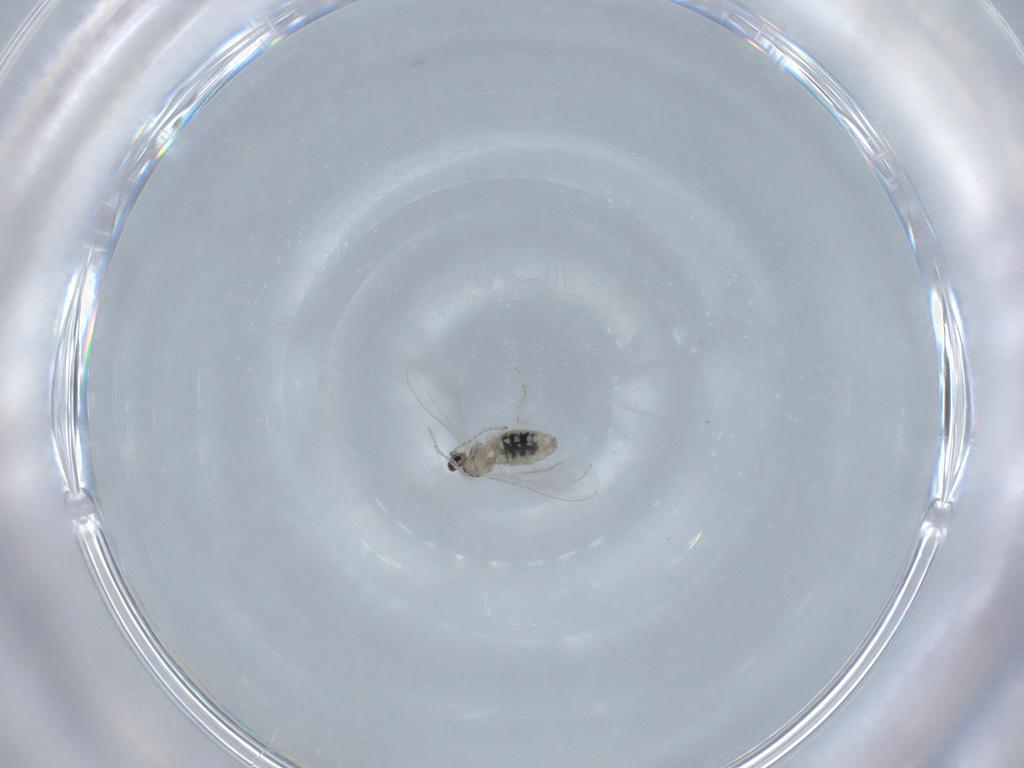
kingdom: Animalia
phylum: Arthropoda
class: Insecta
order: Diptera
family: Cecidomyiidae
